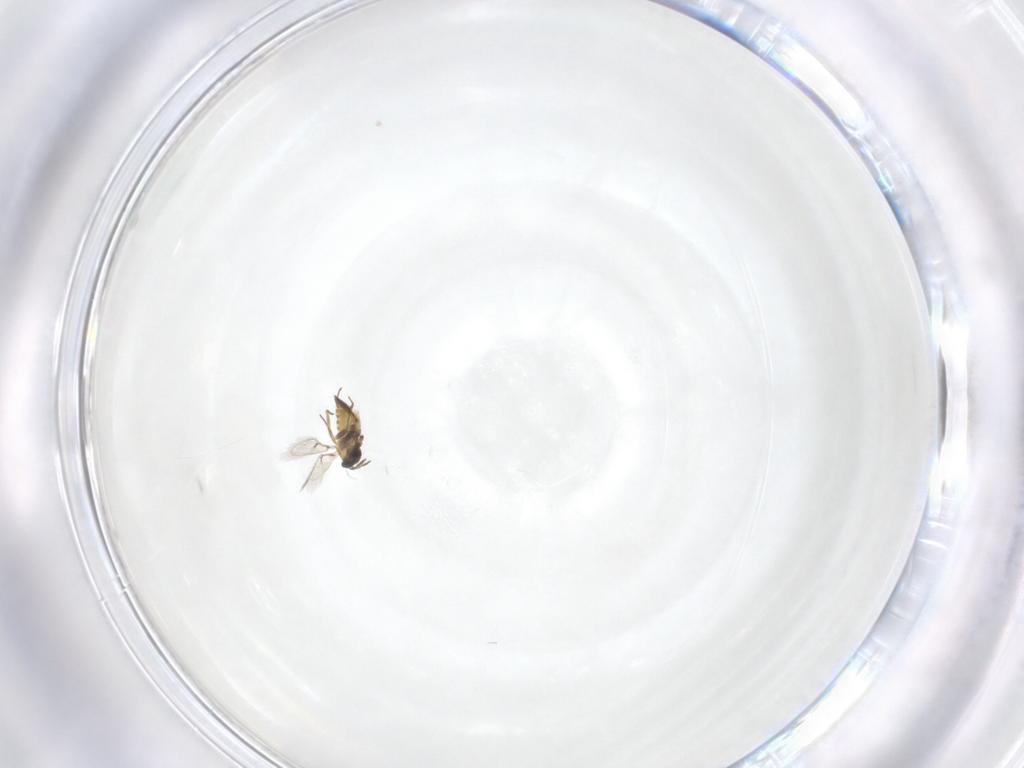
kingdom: Animalia
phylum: Arthropoda
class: Insecta
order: Hymenoptera
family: Trichogrammatidae
